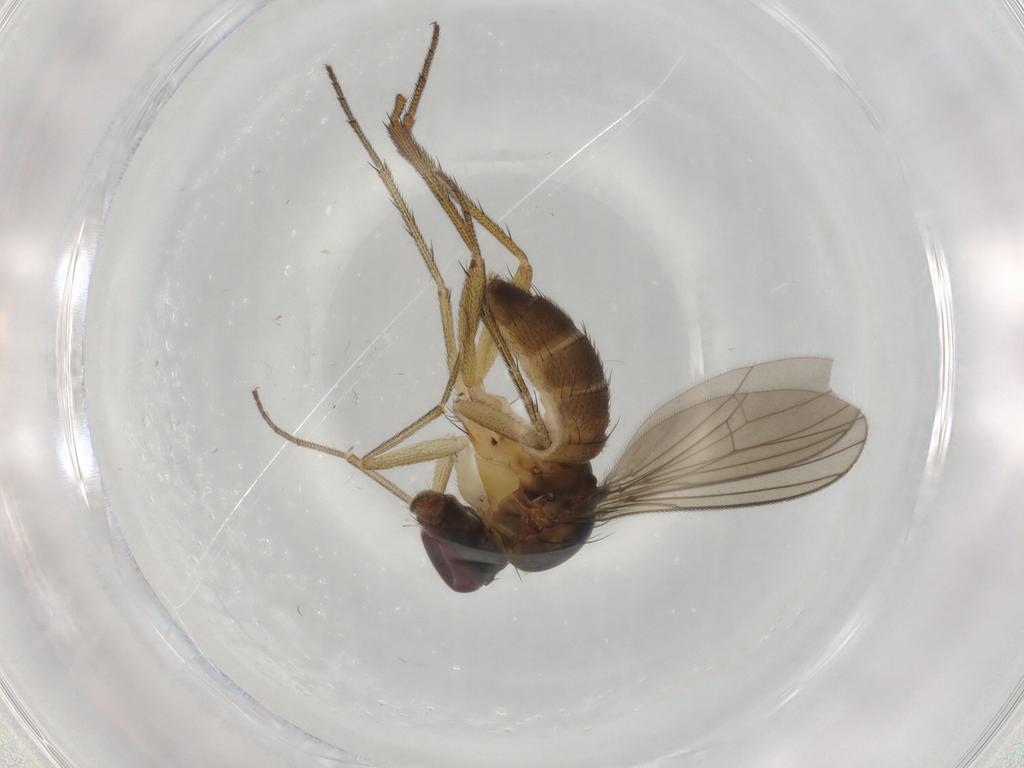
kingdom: Animalia
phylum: Arthropoda
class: Insecta
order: Diptera
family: Dolichopodidae
